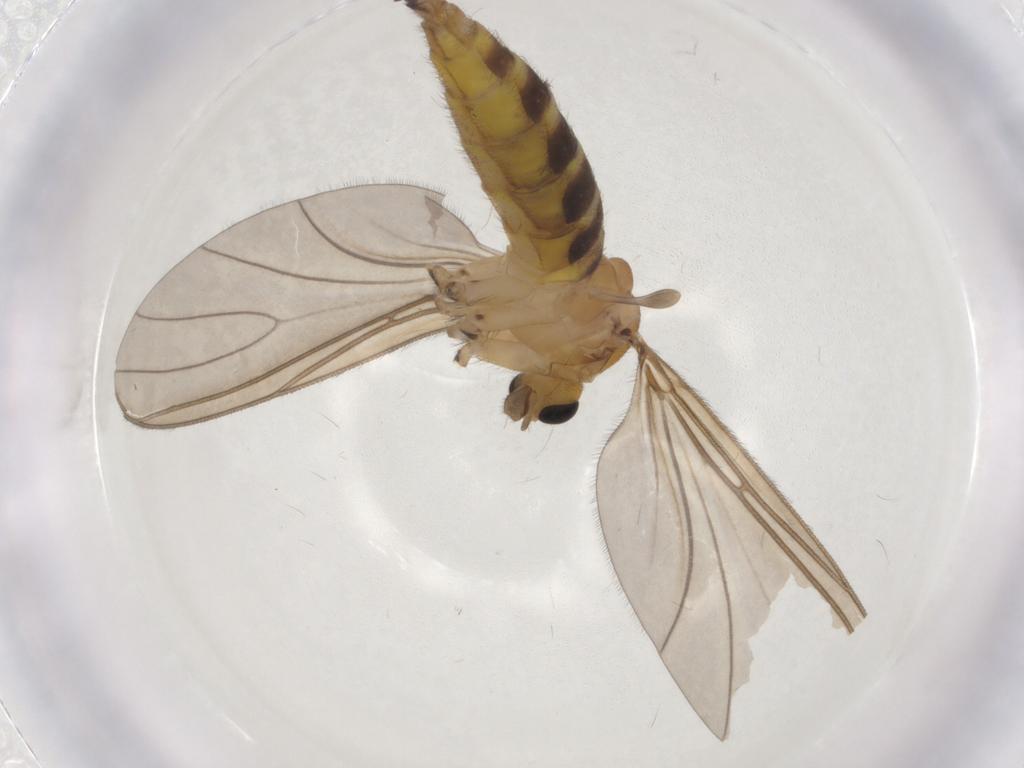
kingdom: Animalia
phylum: Arthropoda
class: Insecta
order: Diptera
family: Sciaridae
